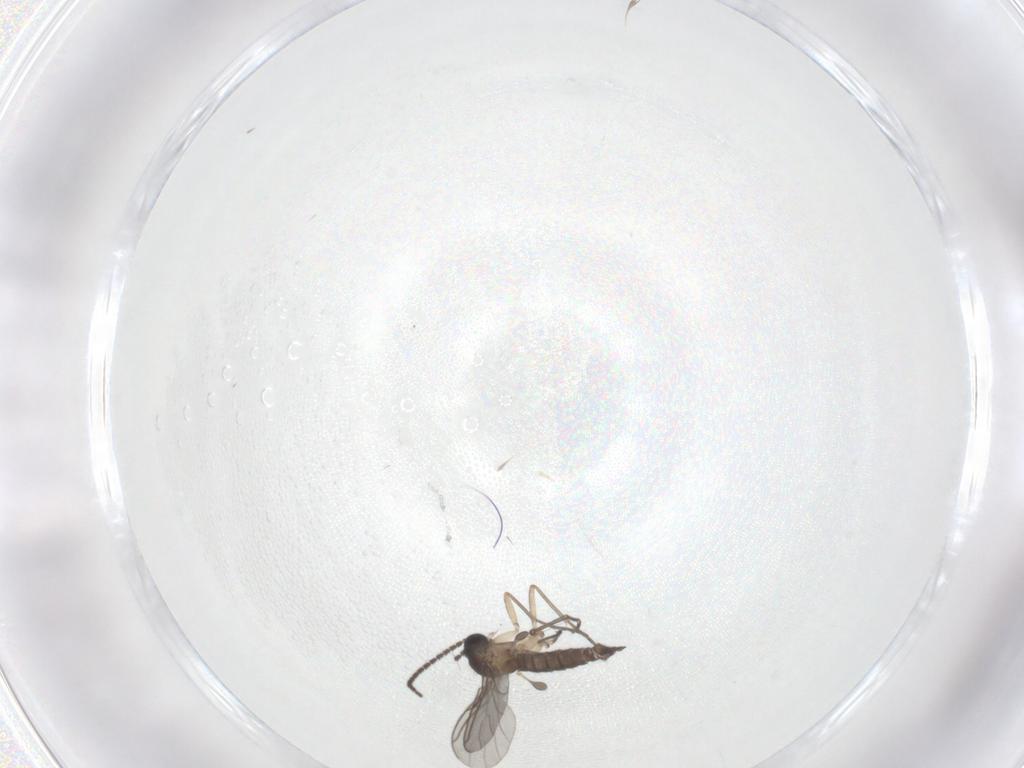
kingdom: Animalia
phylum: Arthropoda
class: Insecta
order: Diptera
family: Sciaridae
